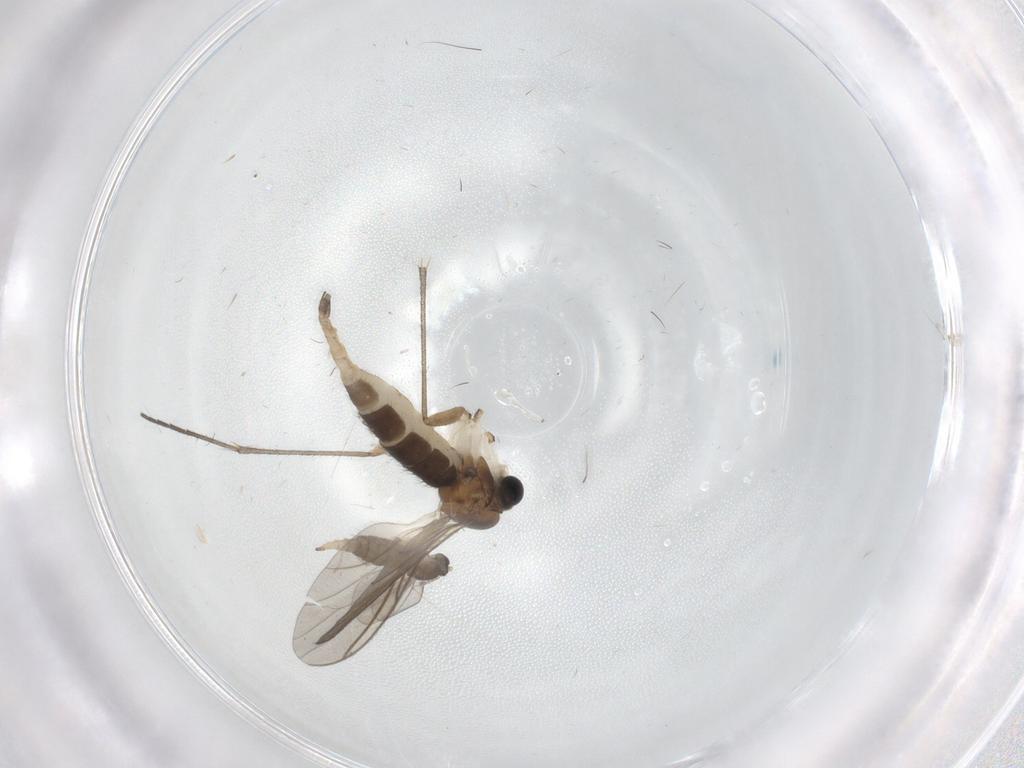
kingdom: Animalia
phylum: Arthropoda
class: Insecta
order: Diptera
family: Sciaridae
